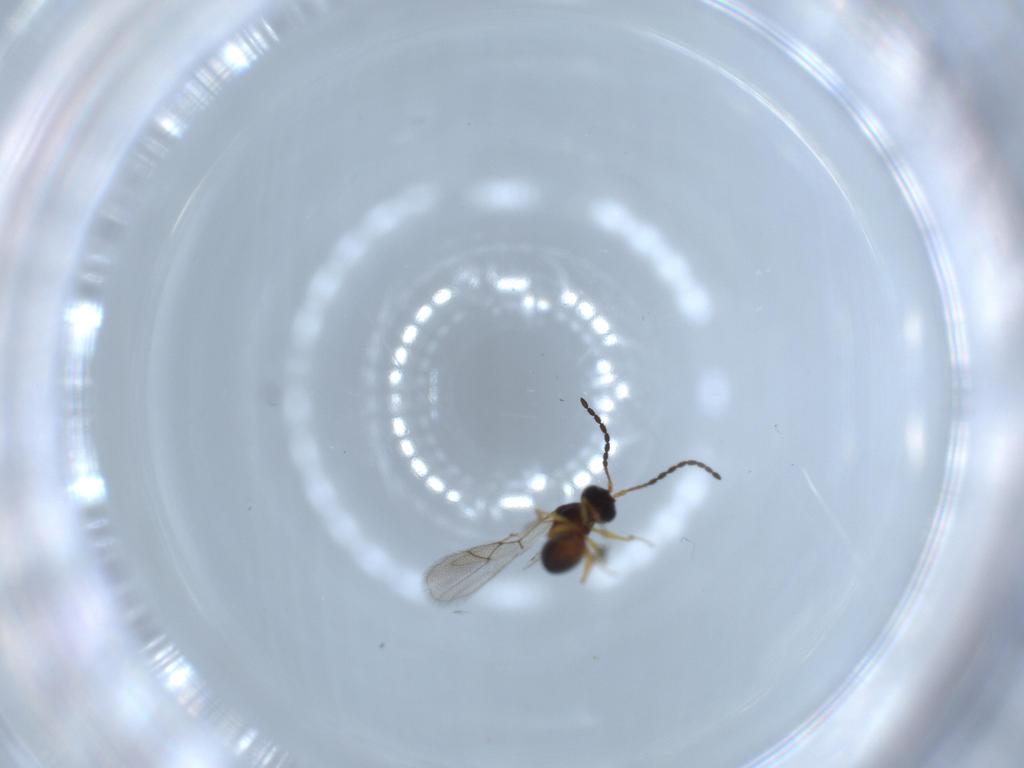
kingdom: Animalia
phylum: Arthropoda
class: Insecta
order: Hymenoptera
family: Figitidae
